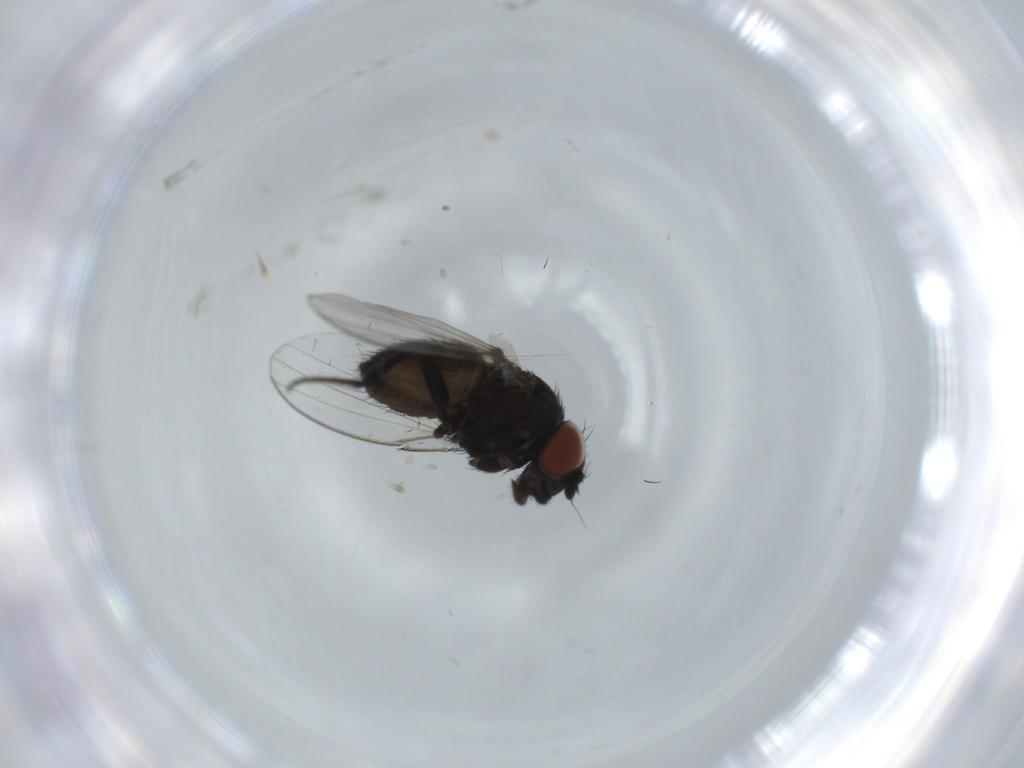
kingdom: Animalia
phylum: Arthropoda
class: Insecta
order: Diptera
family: Milichiidae
